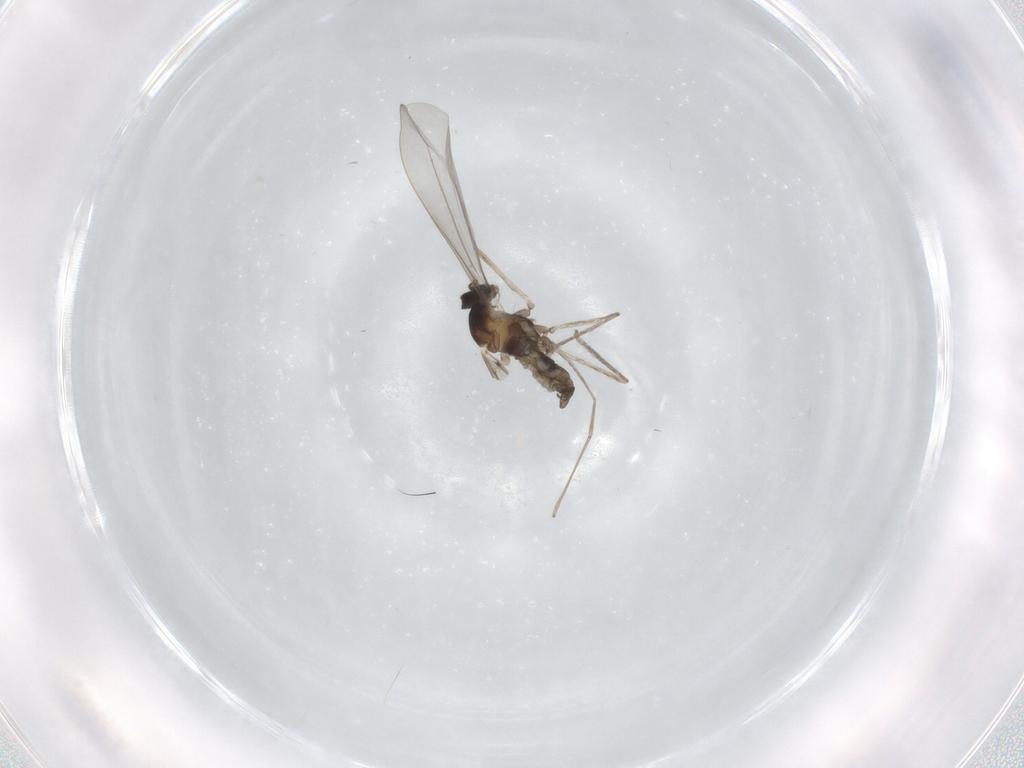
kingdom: Animalia
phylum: Arthropoda
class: Insecta
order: Diptera
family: Cecidomyiidae
